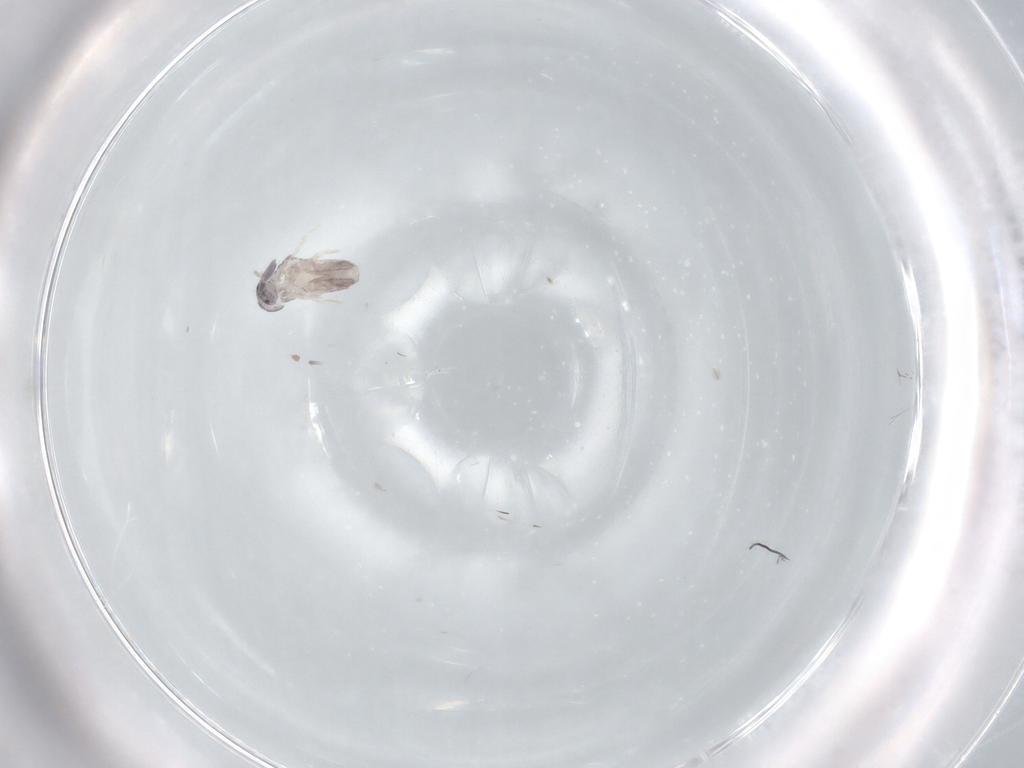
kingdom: Animalia
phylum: Arthropoda
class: Collembola
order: Entomobryomorpha
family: Entomobryidae
